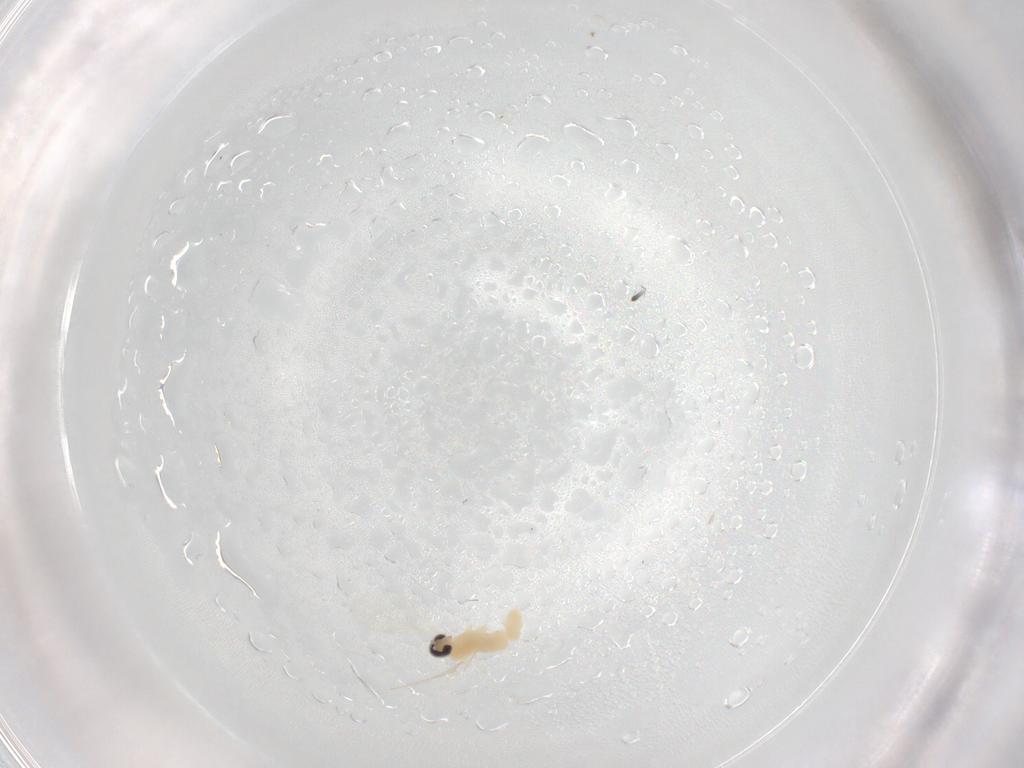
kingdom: Animalia
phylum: Arthropoda
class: Insecta
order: Diptera
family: Cecidomyiidae
